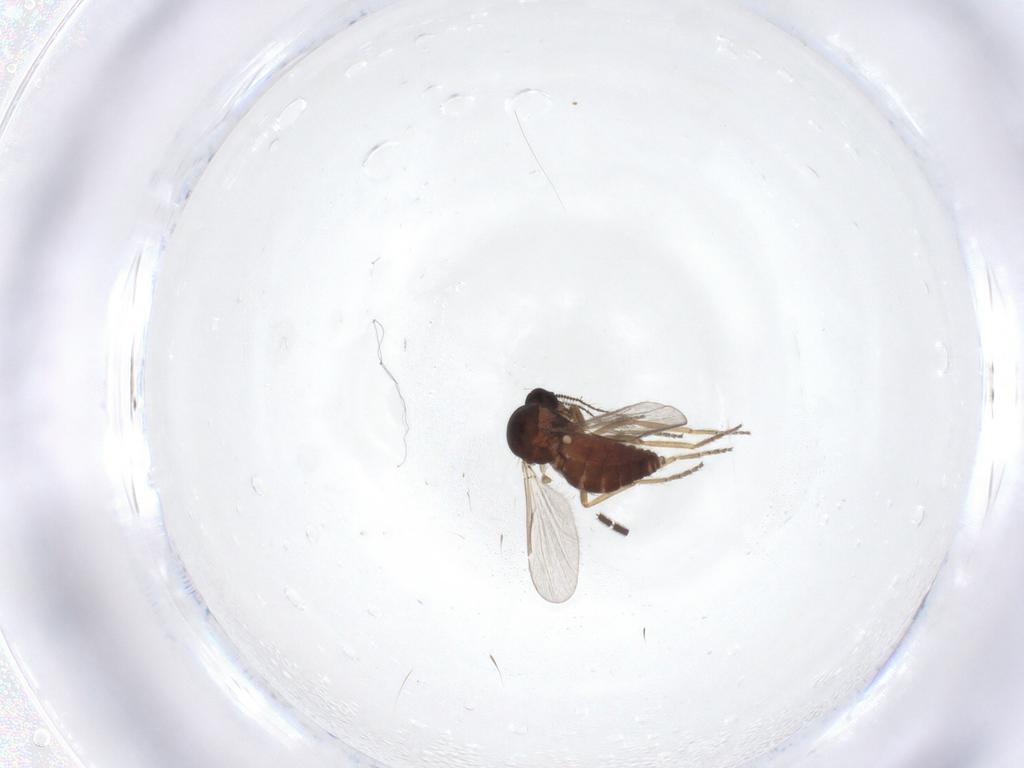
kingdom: Animalia
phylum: Arthropoda
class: Insecta
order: Diptera
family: Ceratopogonidae
